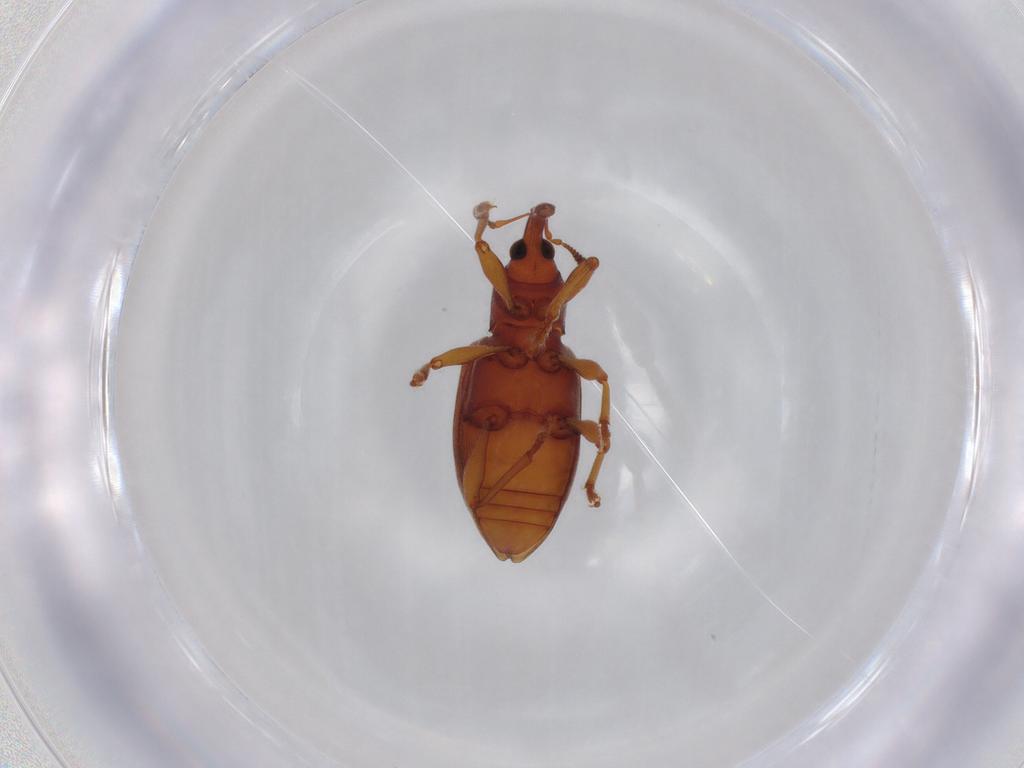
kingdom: Animalia
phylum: Arthropoda
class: Insecta
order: Coleoptera
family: Curculionidae
